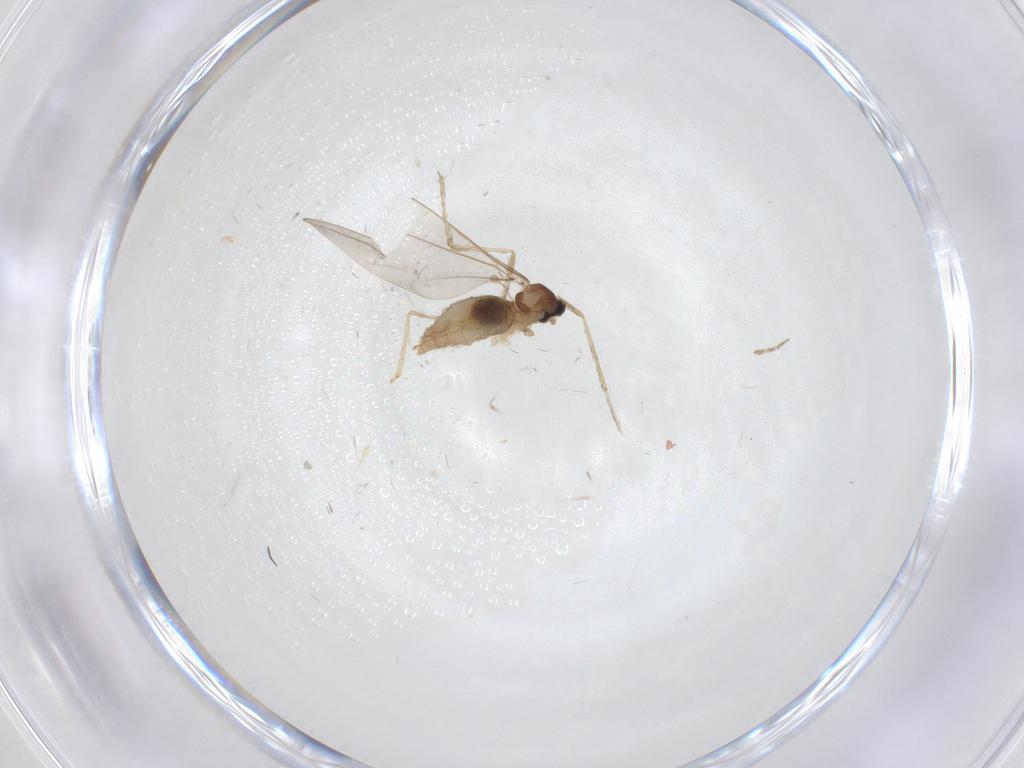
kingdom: Animalia
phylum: Arthropoda
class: Insecta
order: Diptera
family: Cecidomyiidae
